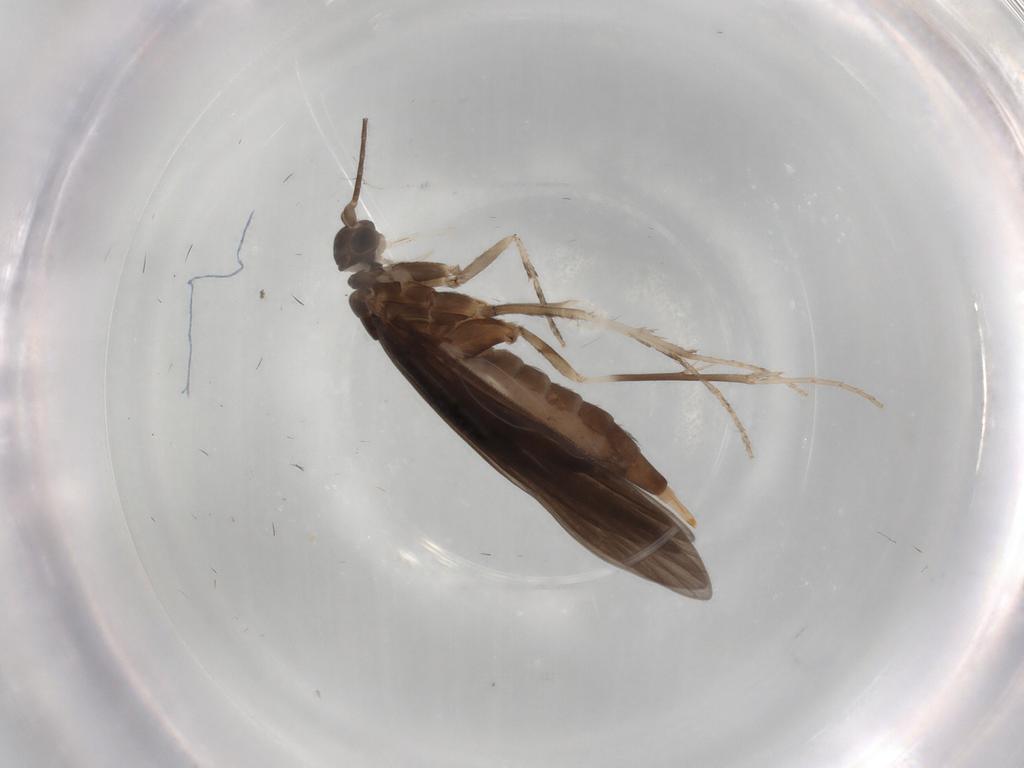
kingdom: Animalia
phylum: Arthropoda
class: Insecta
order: Trichoptera
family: Xiphocentronidae
